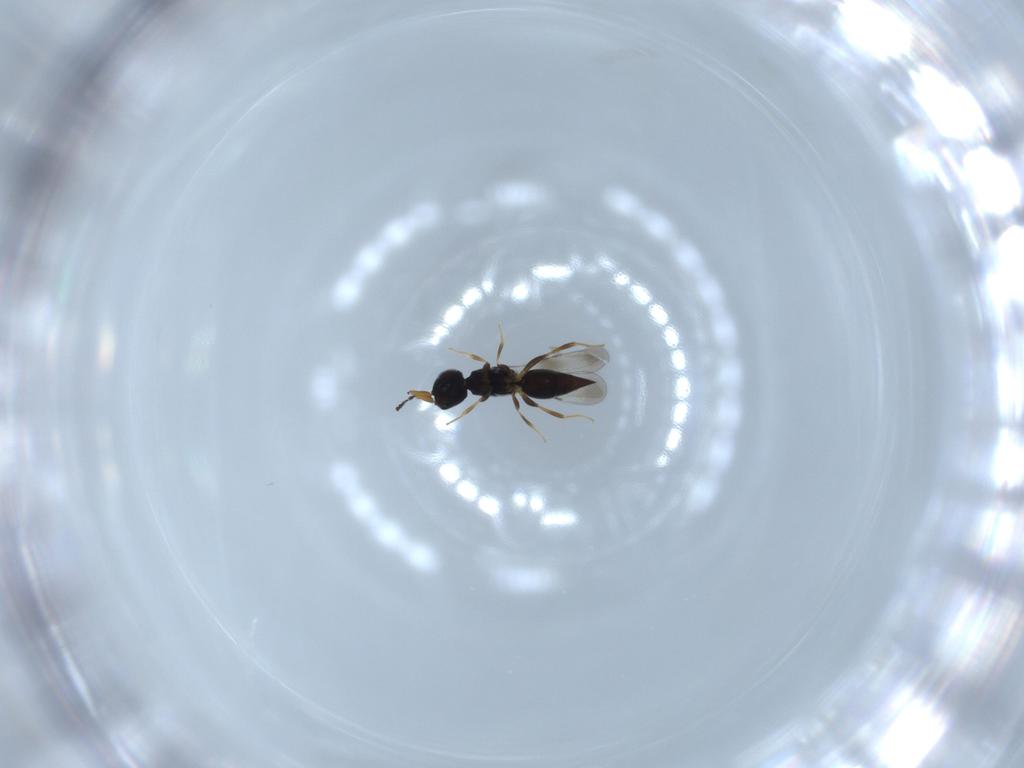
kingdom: Animalia
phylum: Arthropoda
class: Insecta
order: Hymenoptera
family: Ceraphronidae
